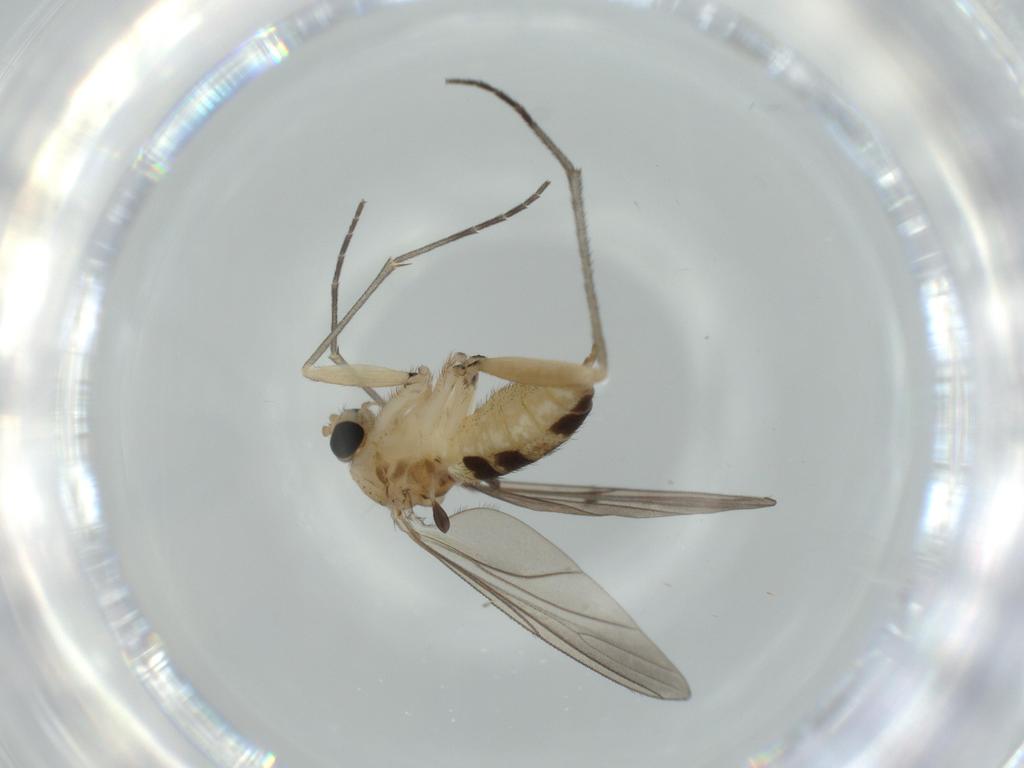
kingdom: Animalia
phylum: Arthropoda
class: Insecta
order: Diptera
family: Sciaridae
